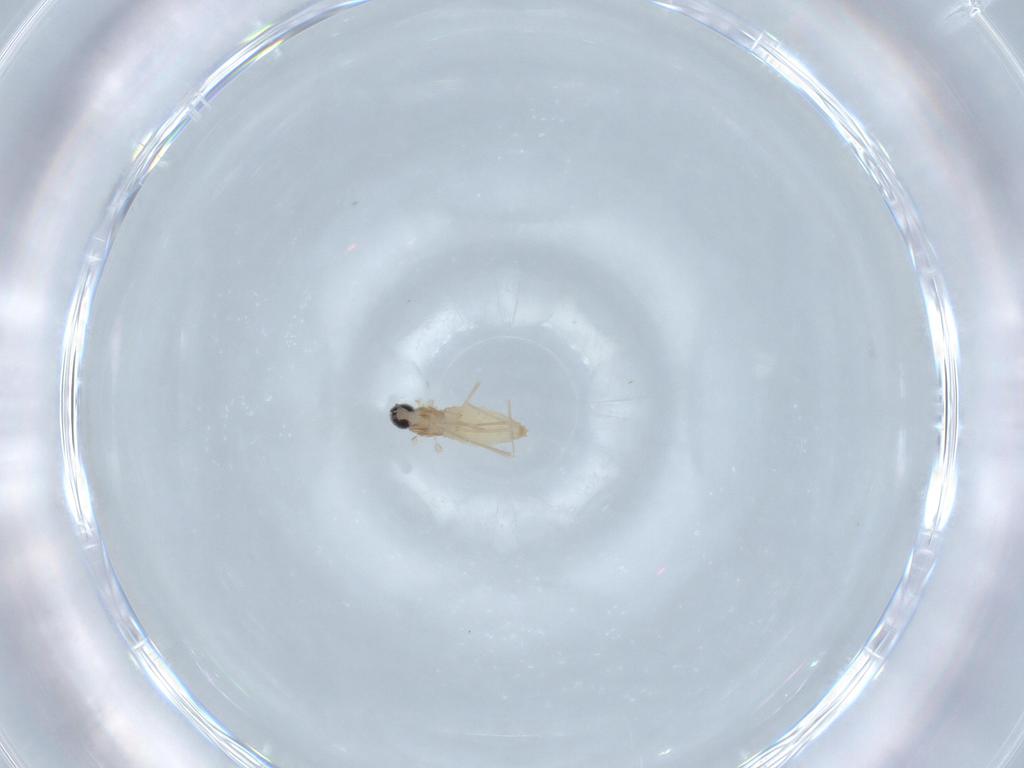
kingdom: Animalia
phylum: Arthropoda
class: Insecta
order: Diptera
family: Cecidomyiidae
